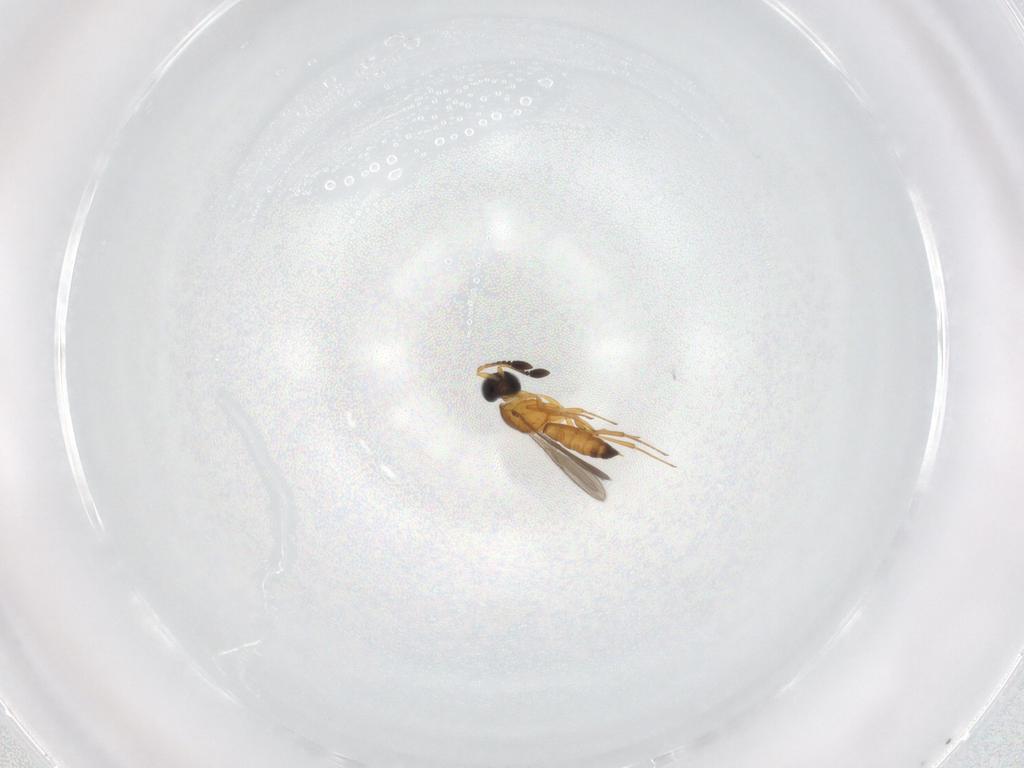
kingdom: Animalia
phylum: Arthropoda
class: Insecta
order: Hymenoptera
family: Scelionidae
